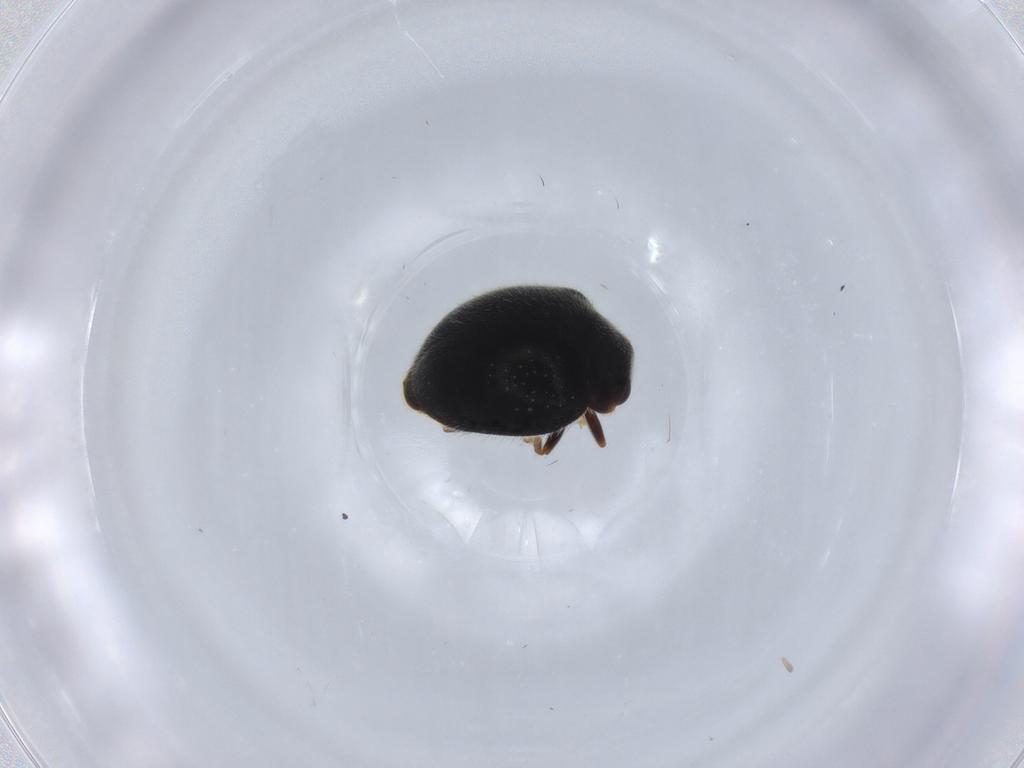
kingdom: Animalia
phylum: Arthropoda
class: Insecta
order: Coleoptera
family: Coccinellidae
